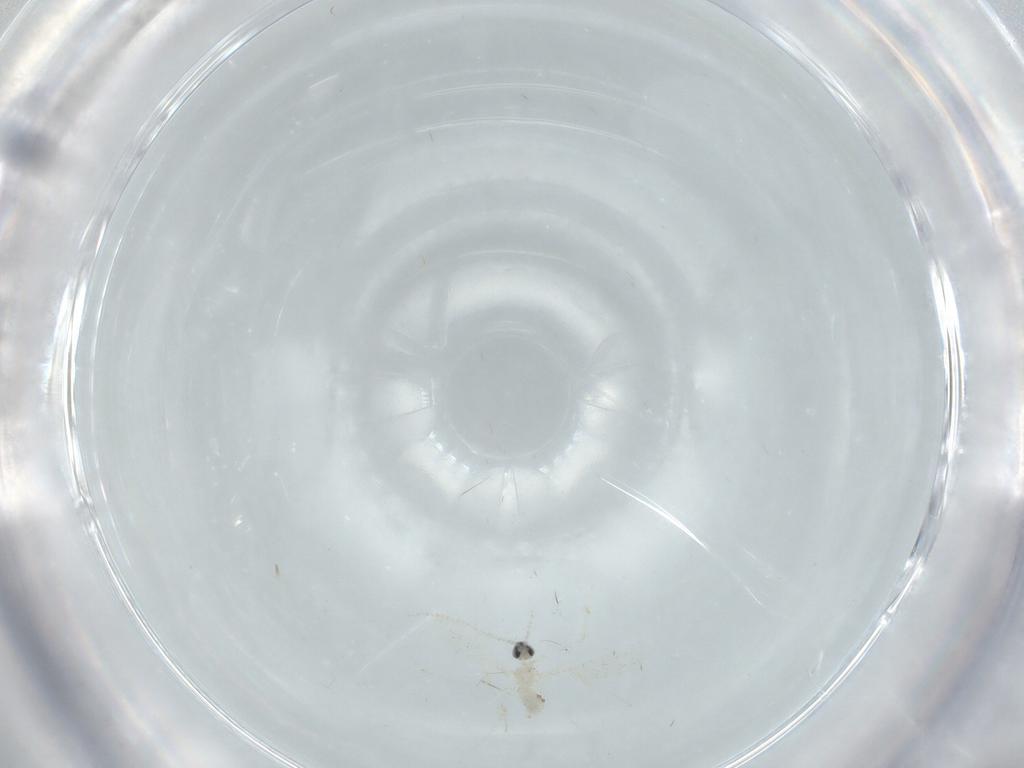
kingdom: Animalia
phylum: Arthropoda
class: Insecta
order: Diptera
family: Cecidomyiidae
